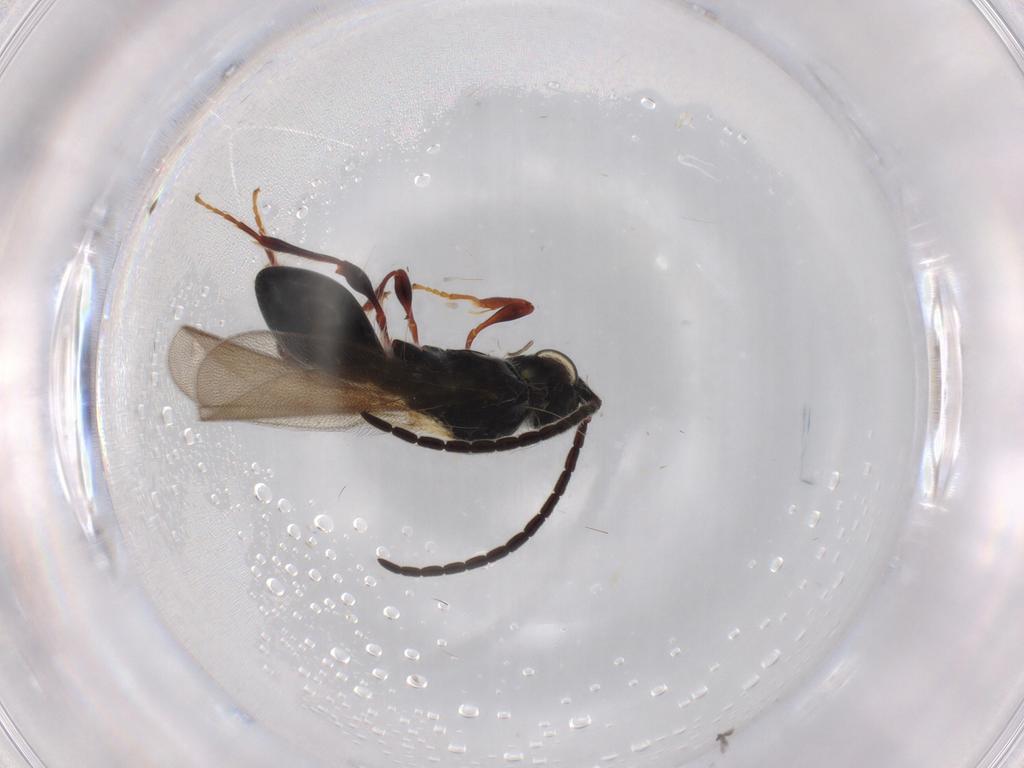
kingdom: Animalia
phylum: Arthropoda
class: Insecta
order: Hymenoptera
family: Diapriidae
